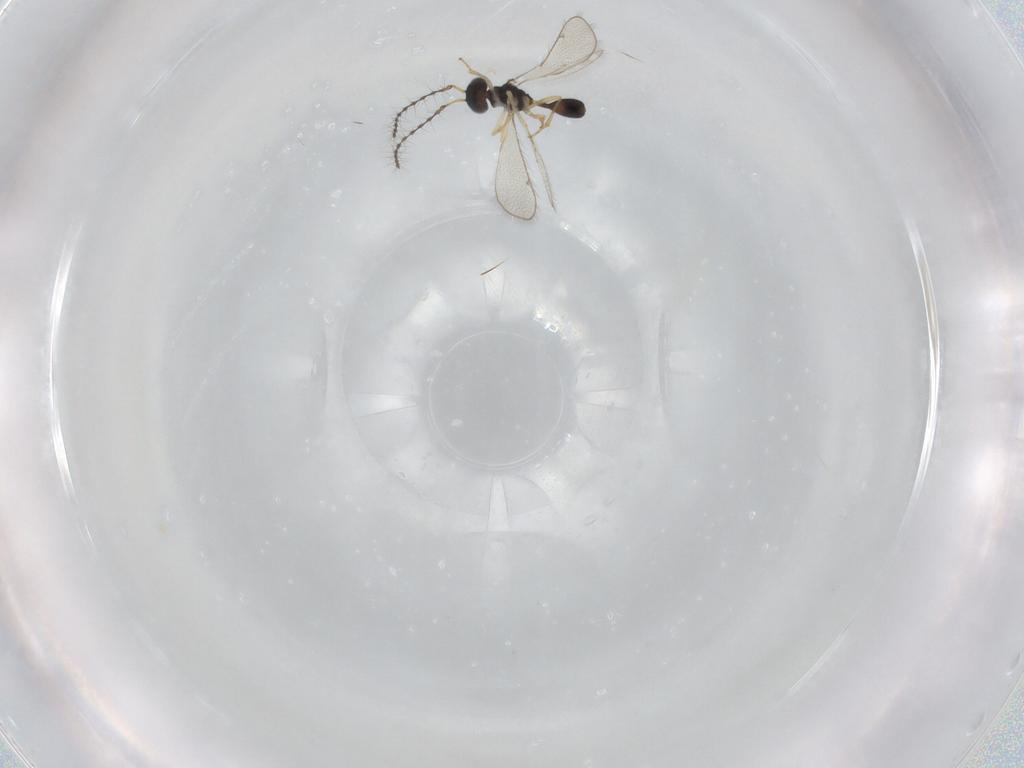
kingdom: Animalia
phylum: Arthropoda
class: Insecta
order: Hymenoptera
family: Diparidae
